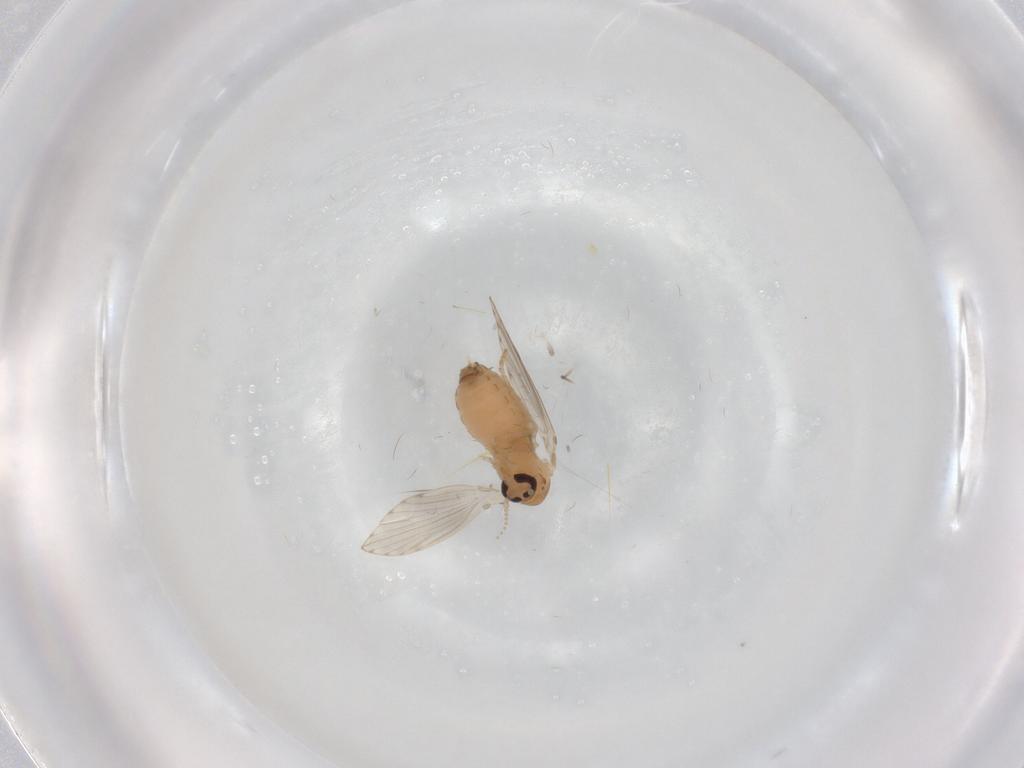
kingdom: Animalia
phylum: Arthropoda
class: Insecta
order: Diptera
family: Psychodidae
